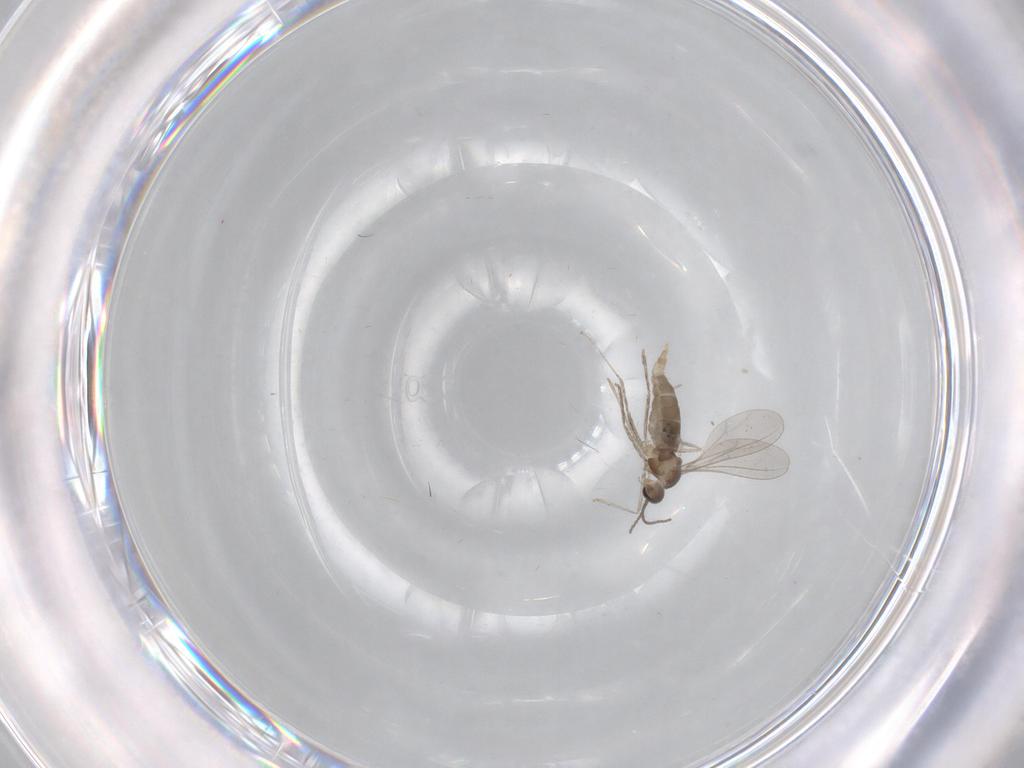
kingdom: Animalia
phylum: Arthropoda
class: Insecta
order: Diptera
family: Sciaridae
